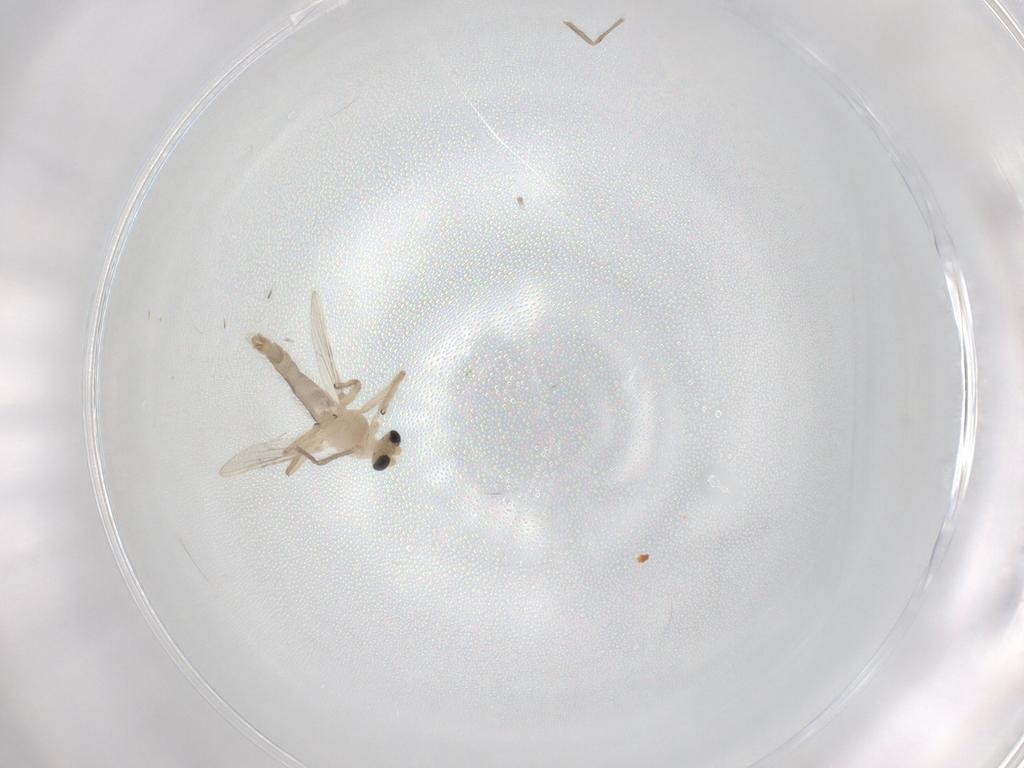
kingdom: Animalia
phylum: Arthropoda
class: Insecta
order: Diptera
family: Chironomidae
